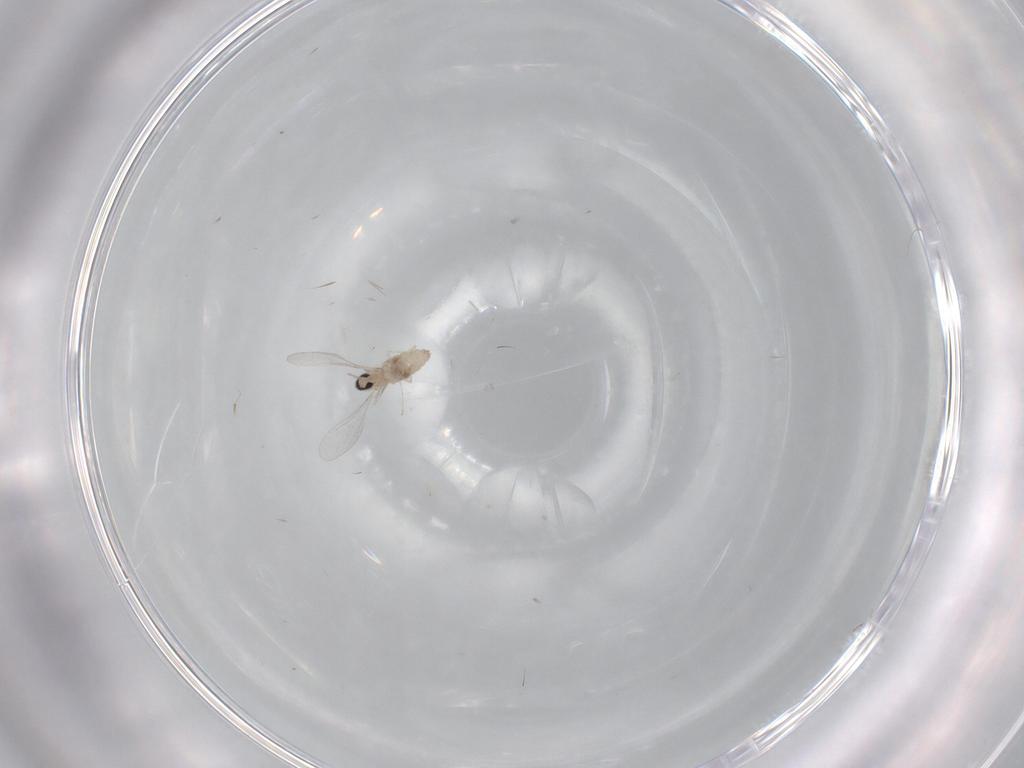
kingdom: Animalia
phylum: Arthropoda
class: Insecta
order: Diptera
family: Cecidomyiidae
